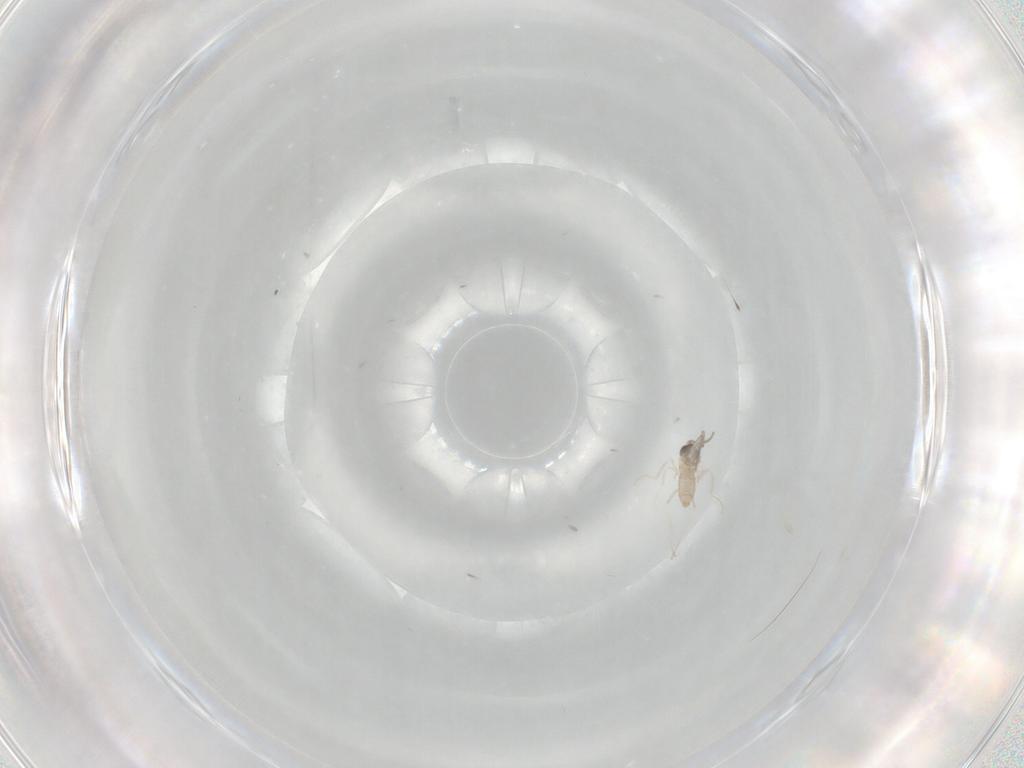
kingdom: Animalia
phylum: Arthropoda
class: Insecta
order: Diptera
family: Cecidomyiidae
